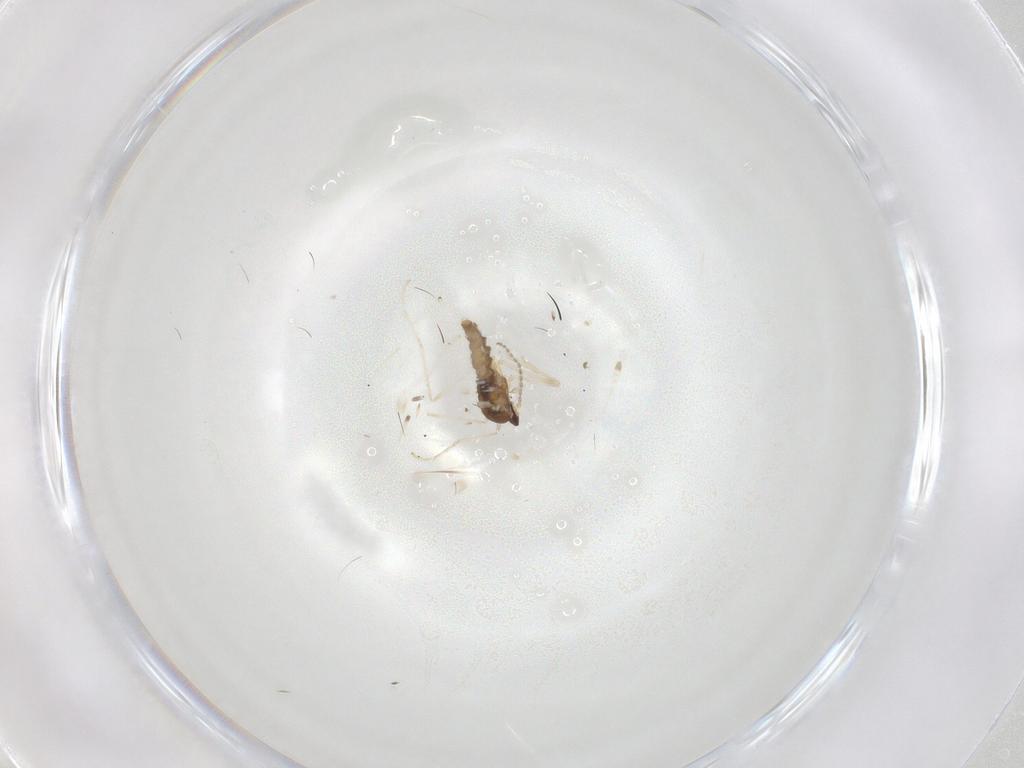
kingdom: Animalia
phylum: Arthropoda
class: Insecta
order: Diptera
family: Cecidomyiidae
